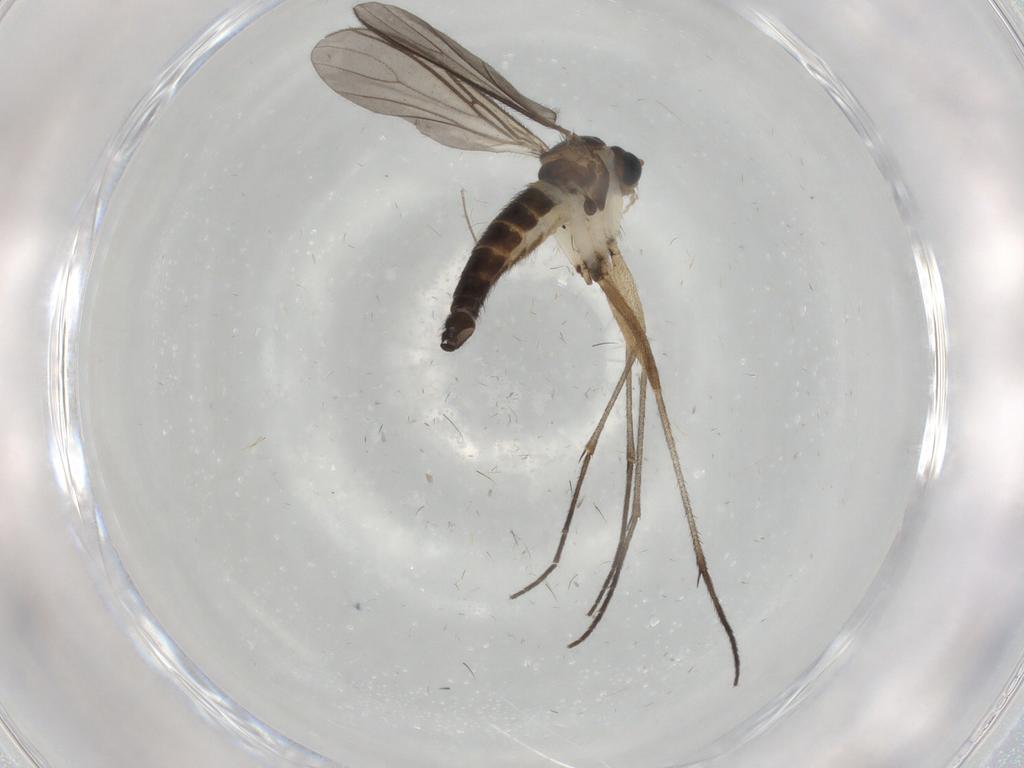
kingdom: Animalia
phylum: Arthropoda
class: Insecta
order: Diptera
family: Sciaridae
